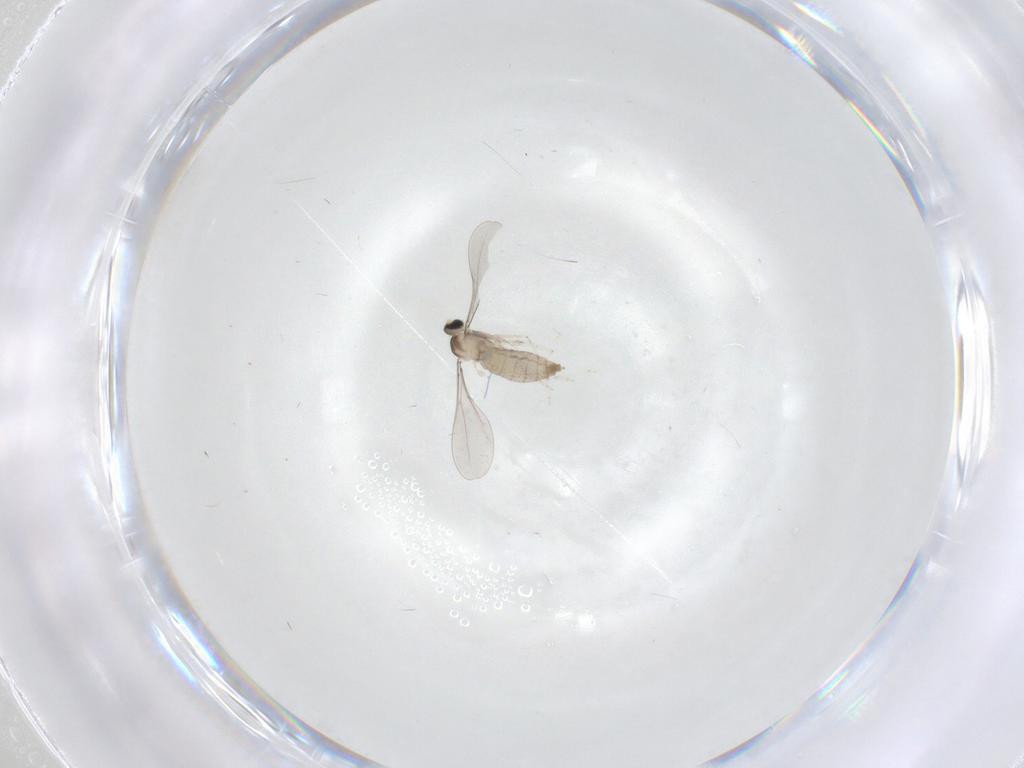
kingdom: Animalia
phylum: Arthropoda
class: Insecta
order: Diptera
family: Cecidomyiidae
